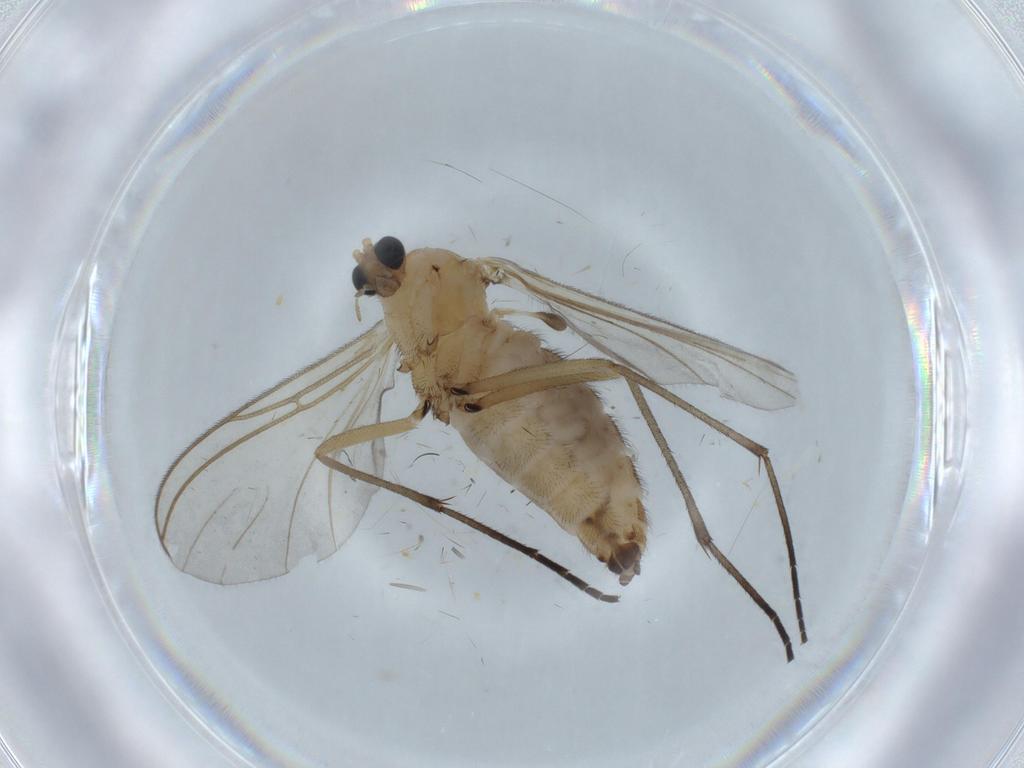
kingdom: Animalia
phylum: Arthropoda
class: Insecta
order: Diptera
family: Sciaridae
